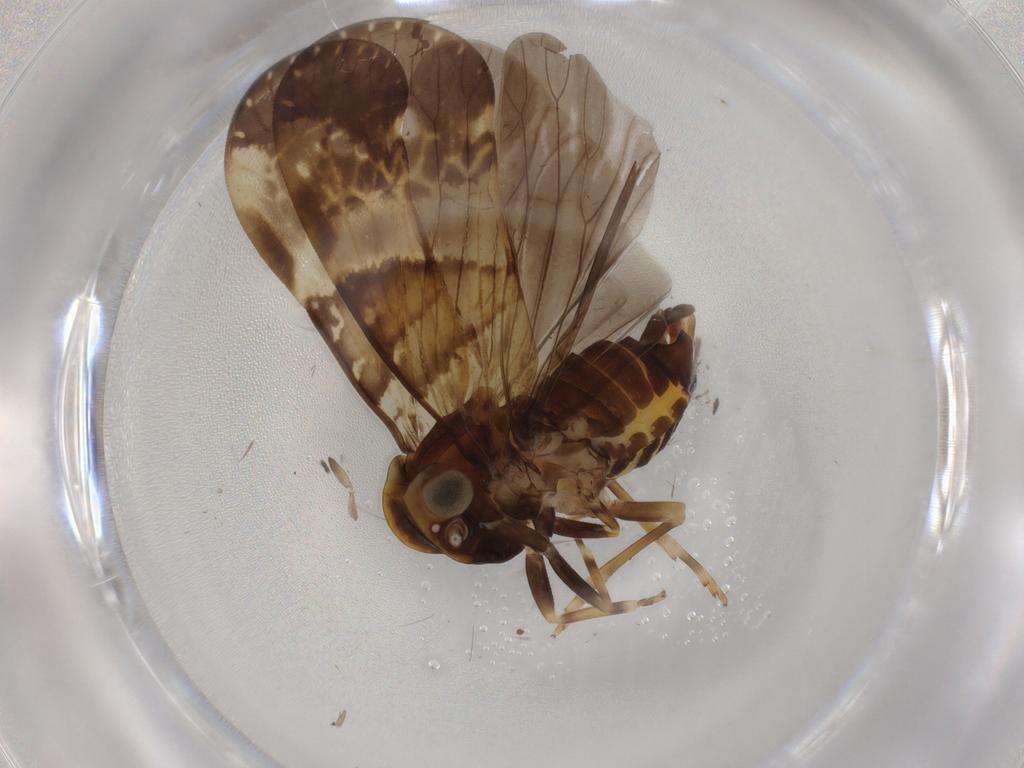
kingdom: Animalia
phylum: Arthropoda
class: Insecta
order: Hemiptera
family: Cixiidae
